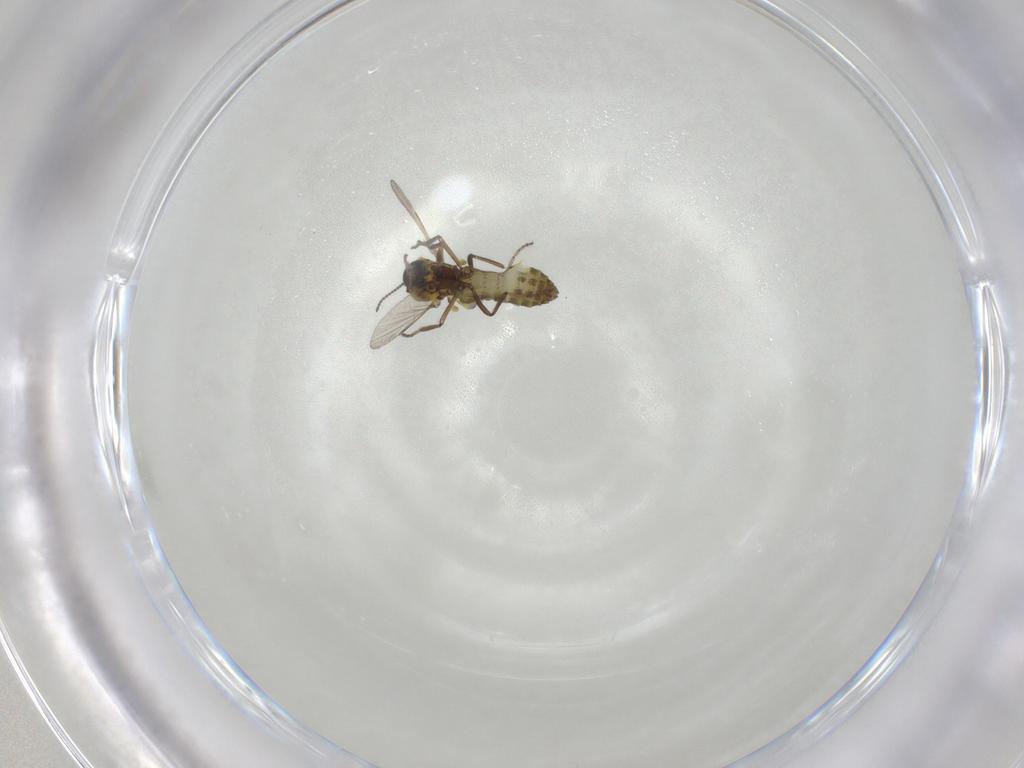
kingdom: Animalia
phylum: Arthropoda
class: Insecta
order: Diptera
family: Ceratopogonidae
